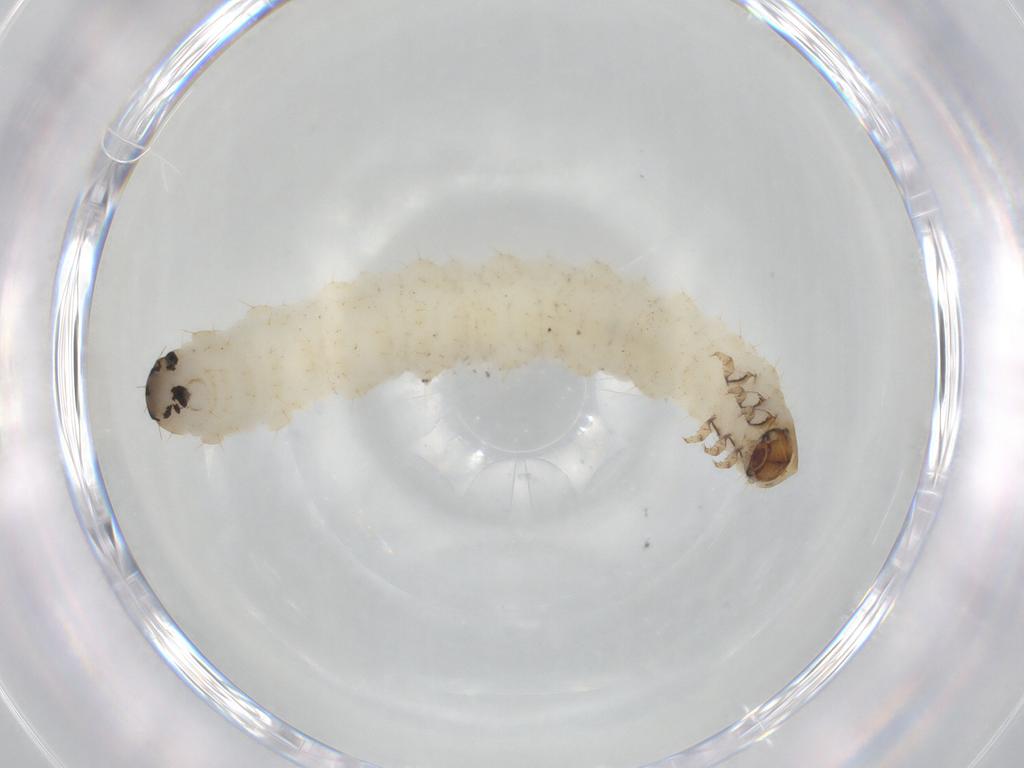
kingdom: Animalia
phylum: Arthropoda
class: Insecta
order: Coleoptera
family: Chrysomelidae
